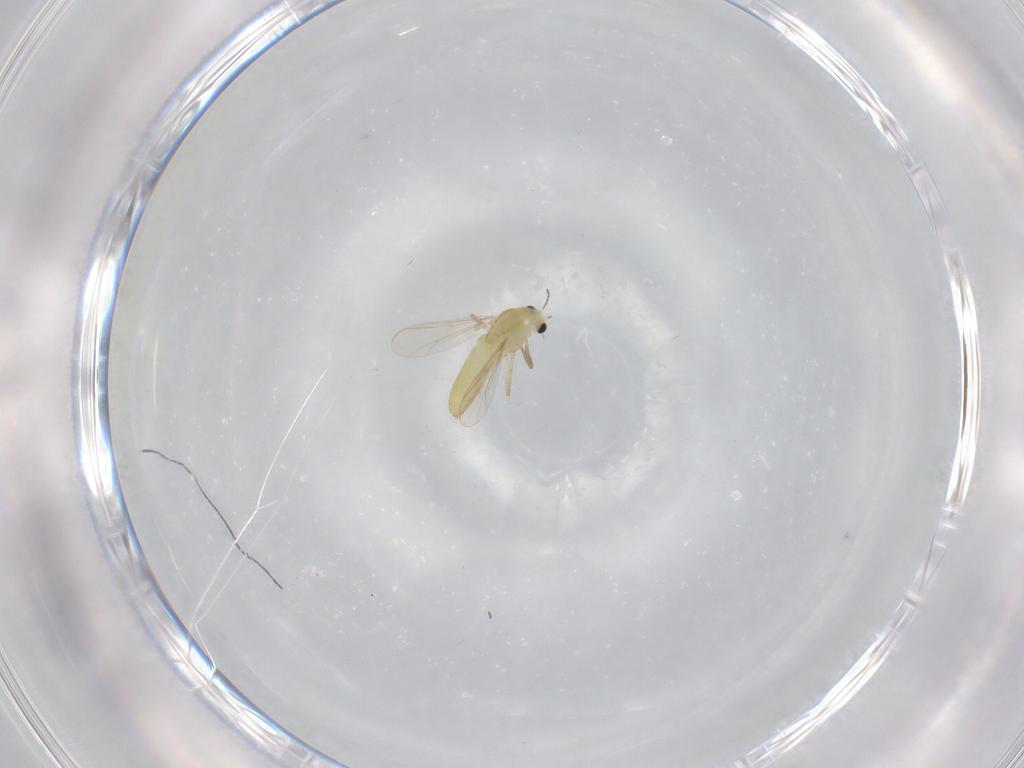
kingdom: Animalia
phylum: Arthropoda
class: Insecta
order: Diptera
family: Chironomidae
